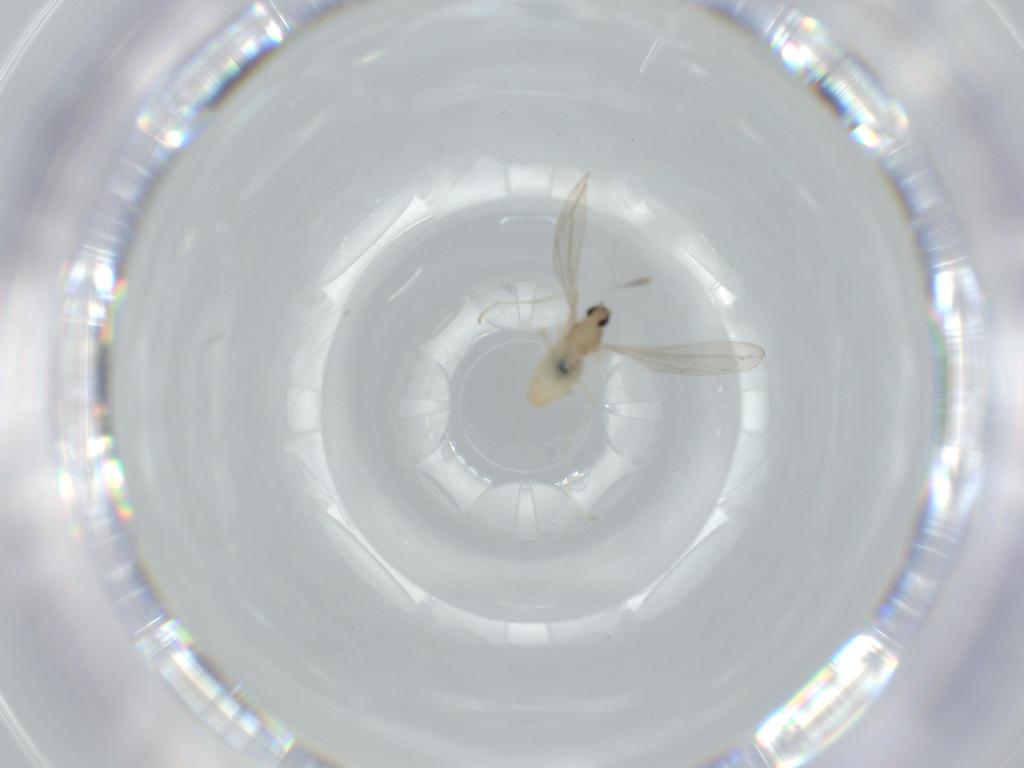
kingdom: Animalia
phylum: Arthropoda
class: Insecta
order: Diptera
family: Cecidomyiidae
